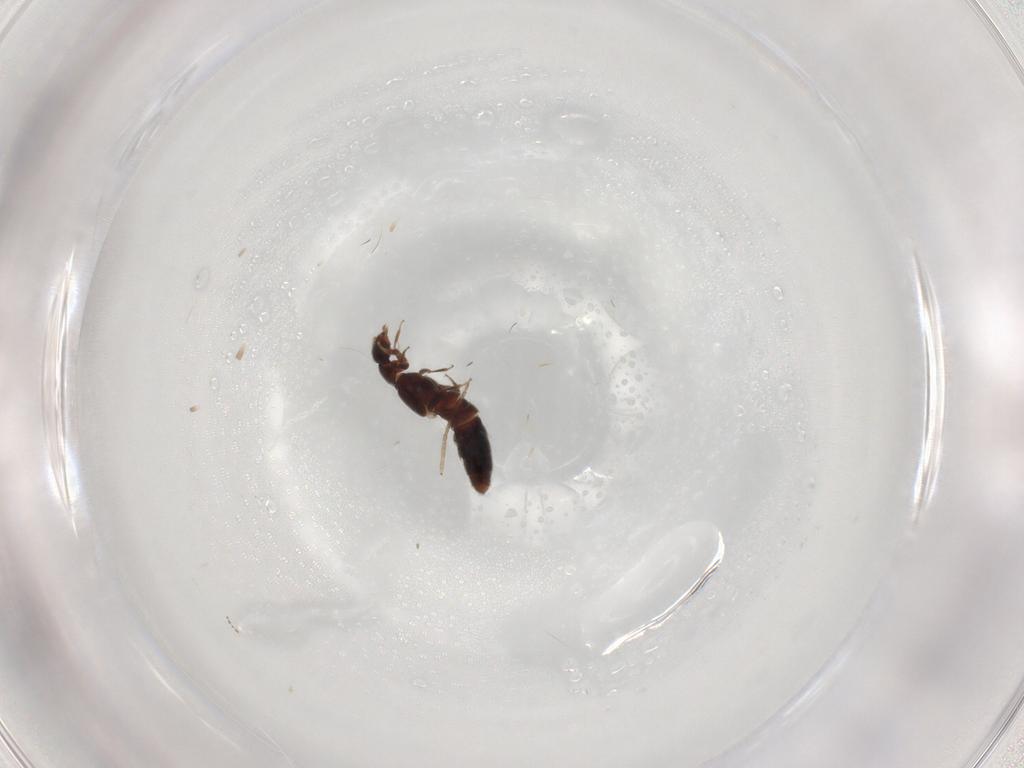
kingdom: Animalia
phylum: Arthropoda
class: Insecta
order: Coleoptera
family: Staphylinidae
